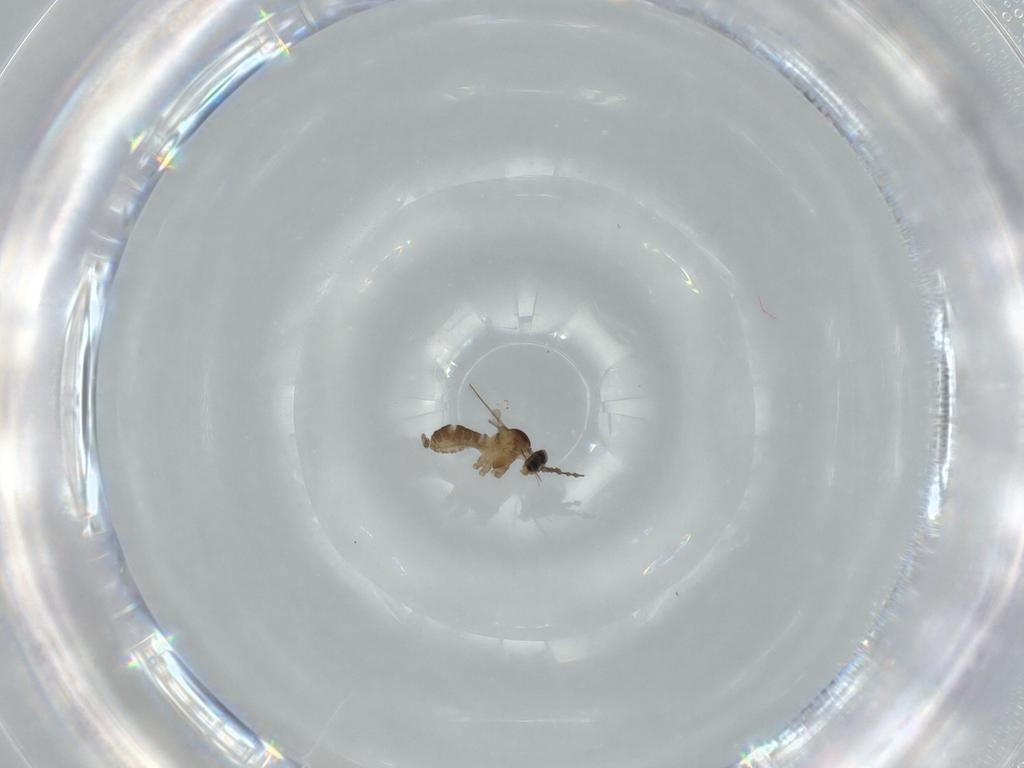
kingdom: Animalia
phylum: Arthropoda
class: Insecta
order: Diptera
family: Cecidomyiidae
